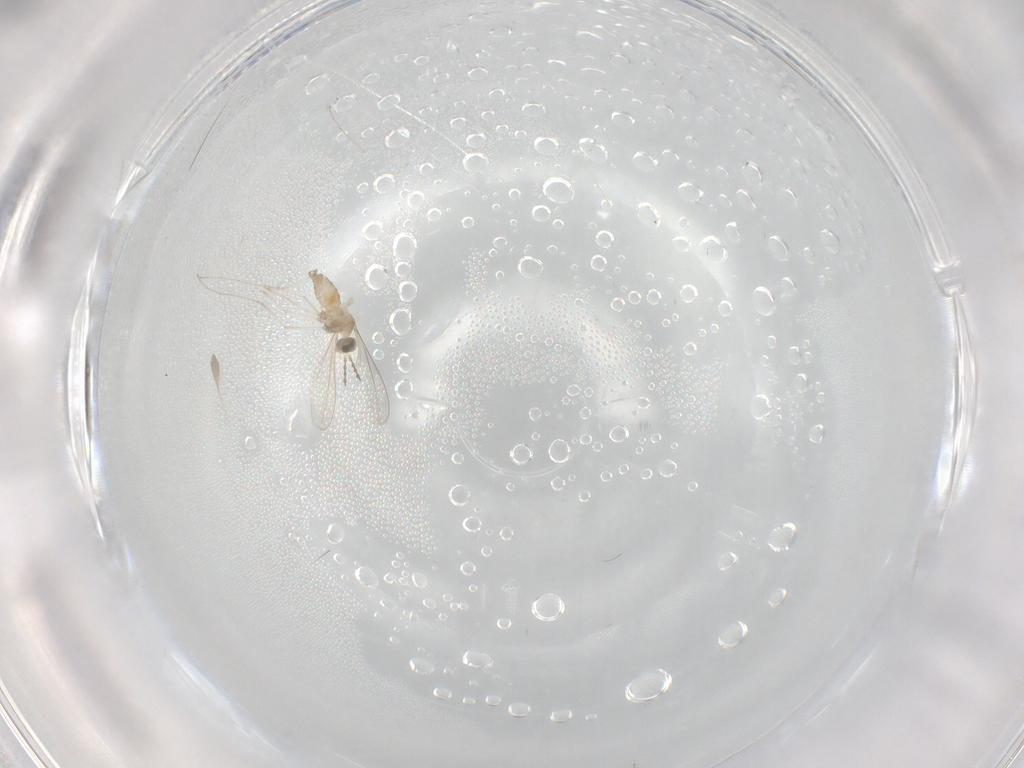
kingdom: Animalia
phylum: Arthropoda
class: Insecta
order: Diptera
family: Cecidomyiidae
